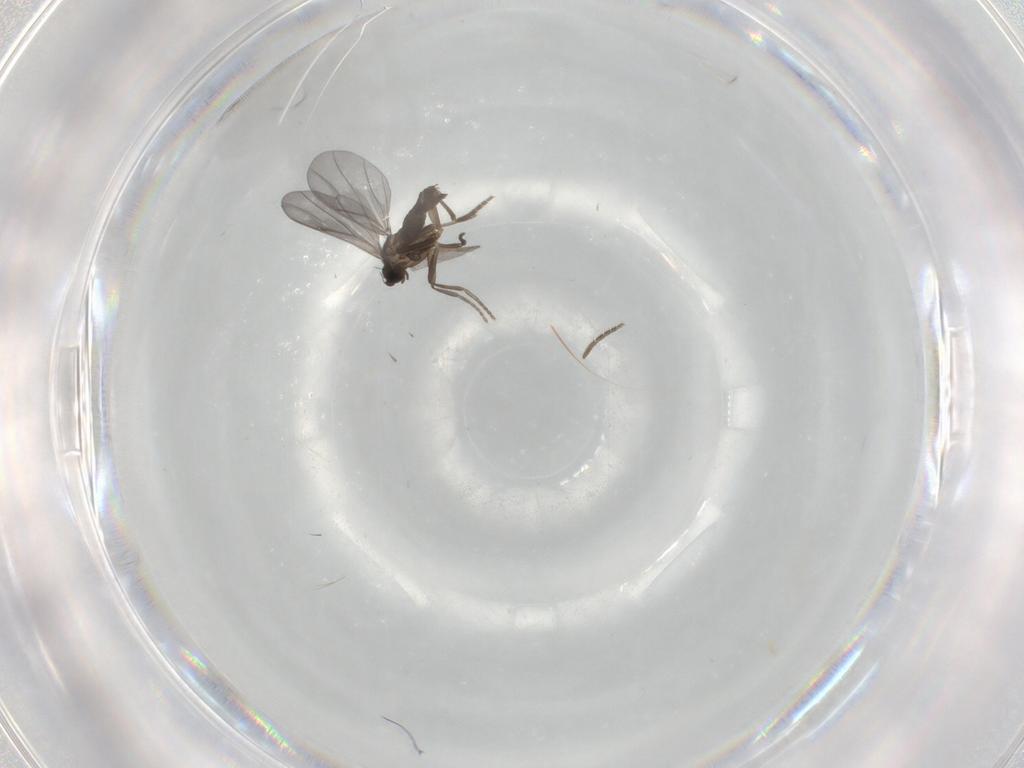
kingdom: Animalia
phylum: Arthropoda
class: Insecta
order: Diptera
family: Phoridae
